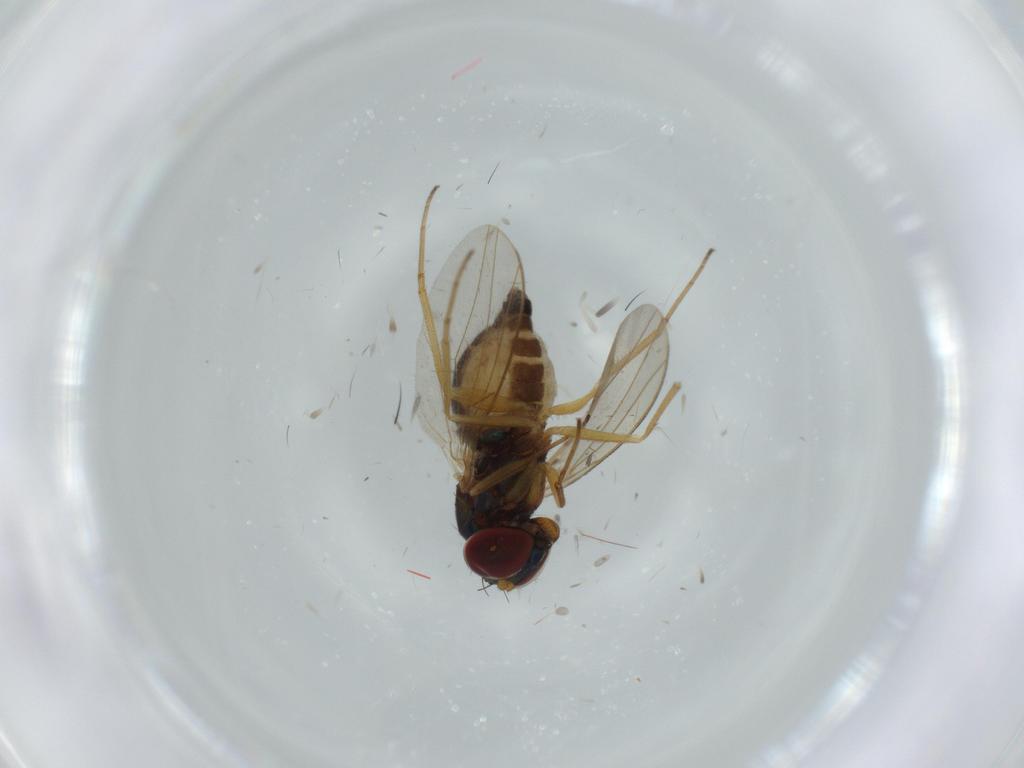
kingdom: Animalia
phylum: Arthropoda
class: Insecta
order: Diptera
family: Dolichopodidae
